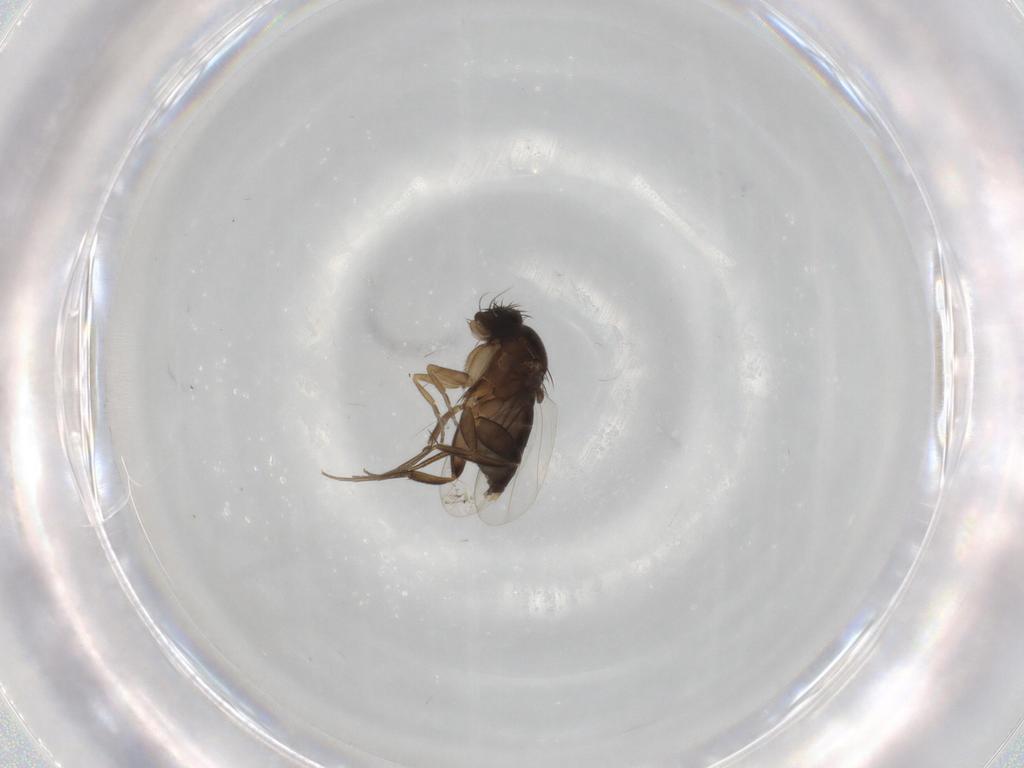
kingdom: Animalia
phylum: Arthropoda
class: Insecta
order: Diptera
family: Phoridae
